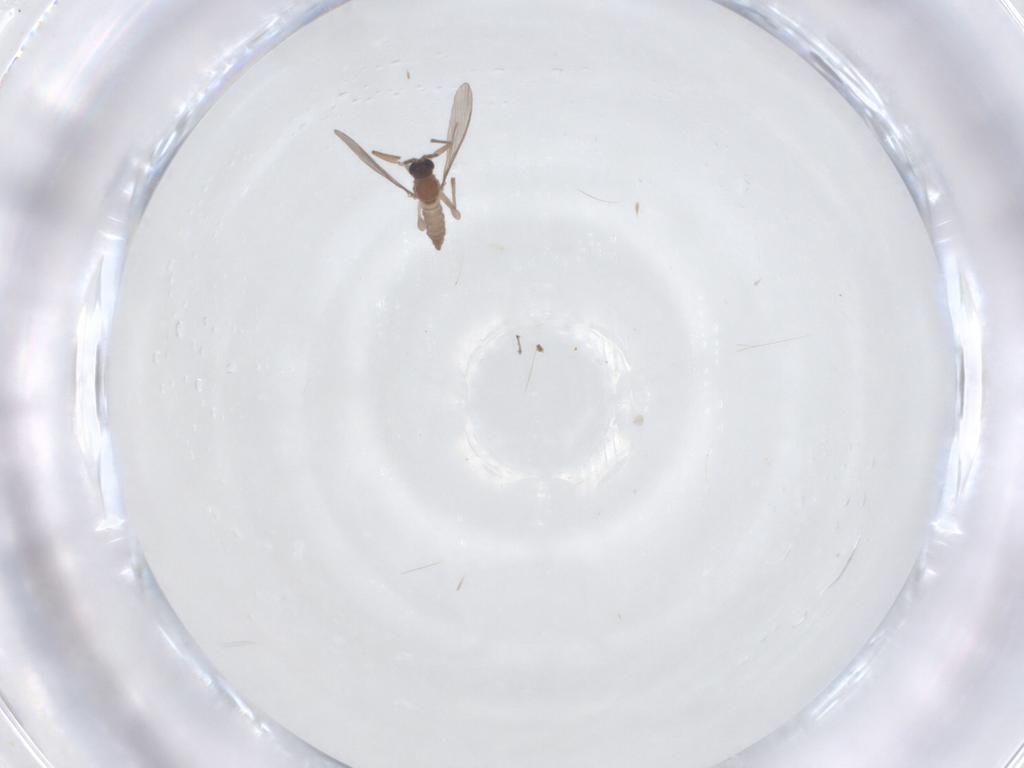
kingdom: Animalia
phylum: Arthropoda
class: Insecta
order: Diptera
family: Sciaridae
